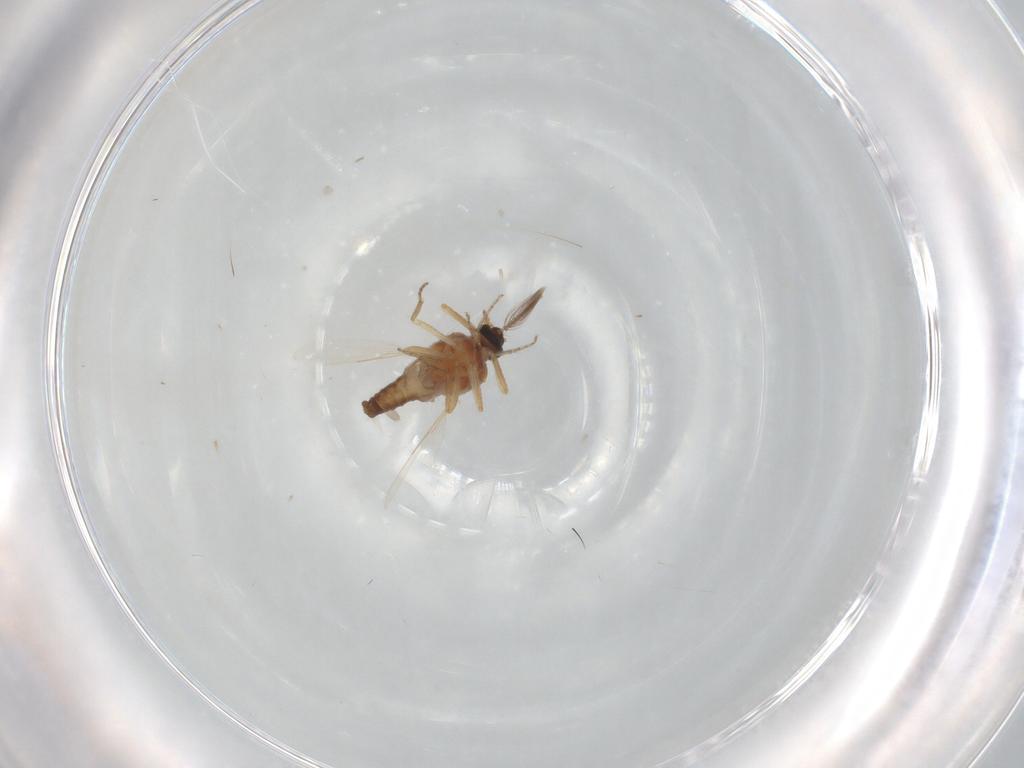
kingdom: Animalia
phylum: Arthropoda
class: Insecta
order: Diptera
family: Ceratopogonidae
